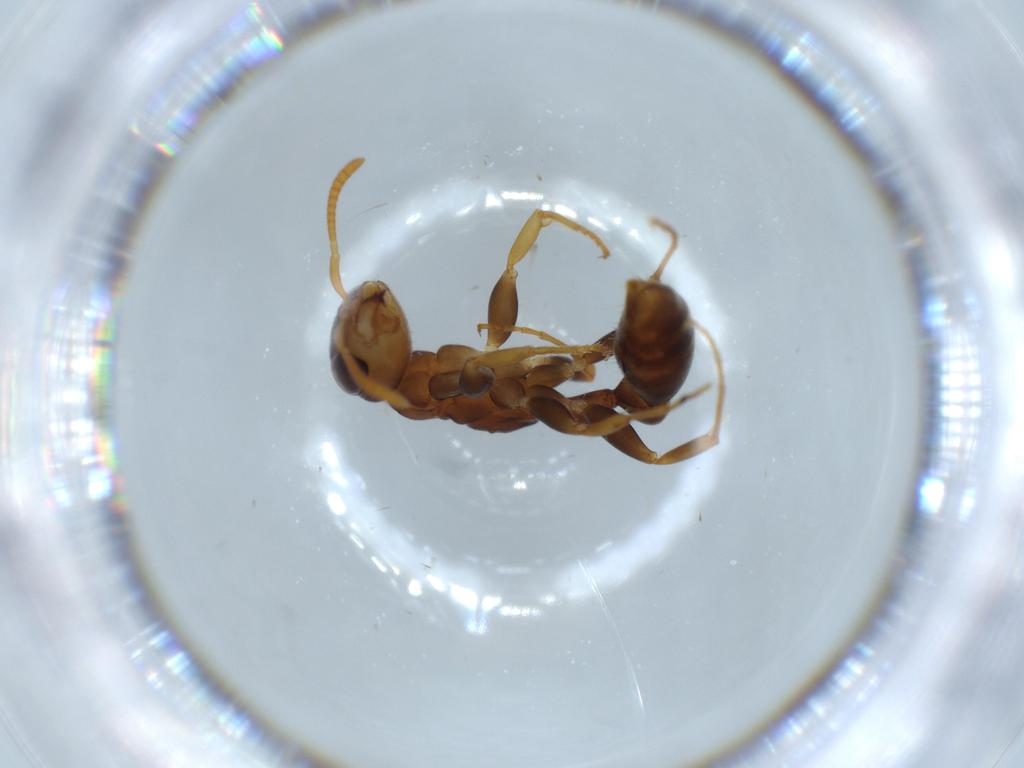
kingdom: Animalia
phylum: Arthropoda
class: Insecta
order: Hymenoptera
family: Formicidae
